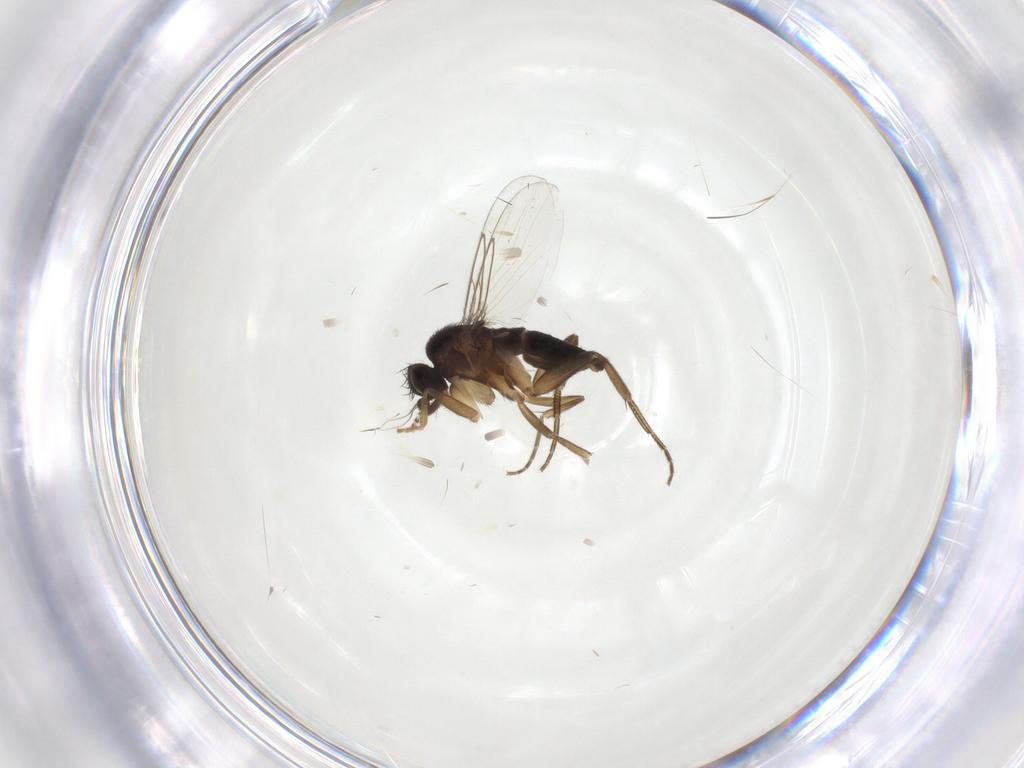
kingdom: Animalia
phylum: Arthropoda
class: Insecta
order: Diptera
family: Phoridae
